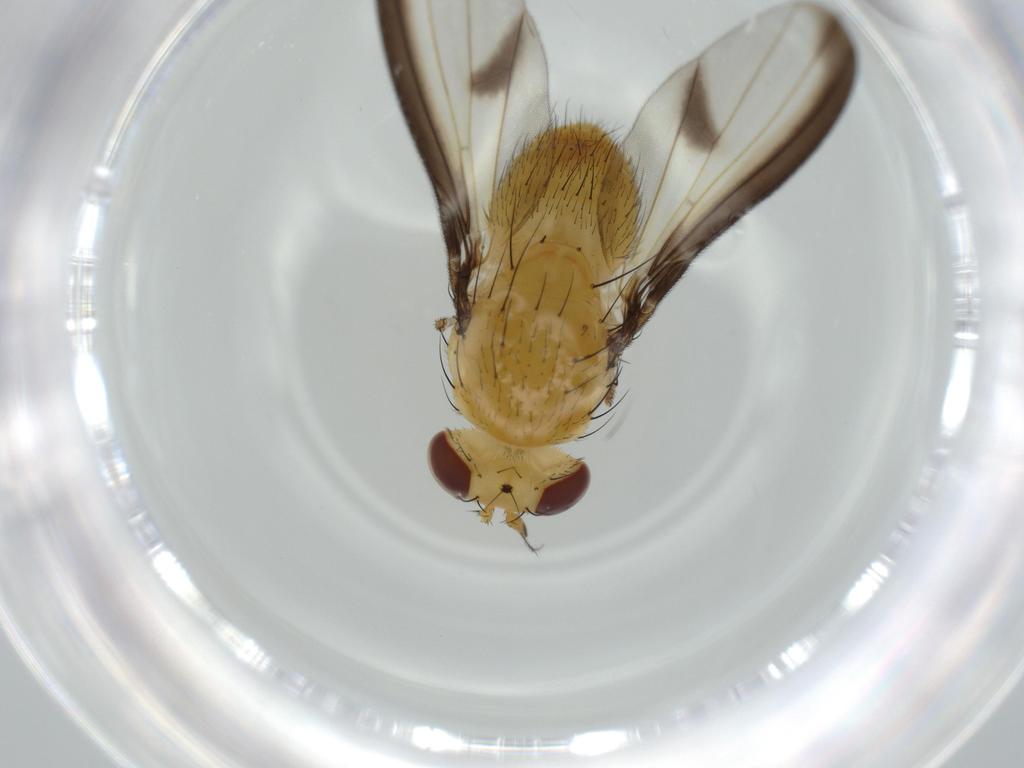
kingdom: Animalia
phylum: Arthropoda
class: Insecta
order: Diptera
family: Lauxaniidae
